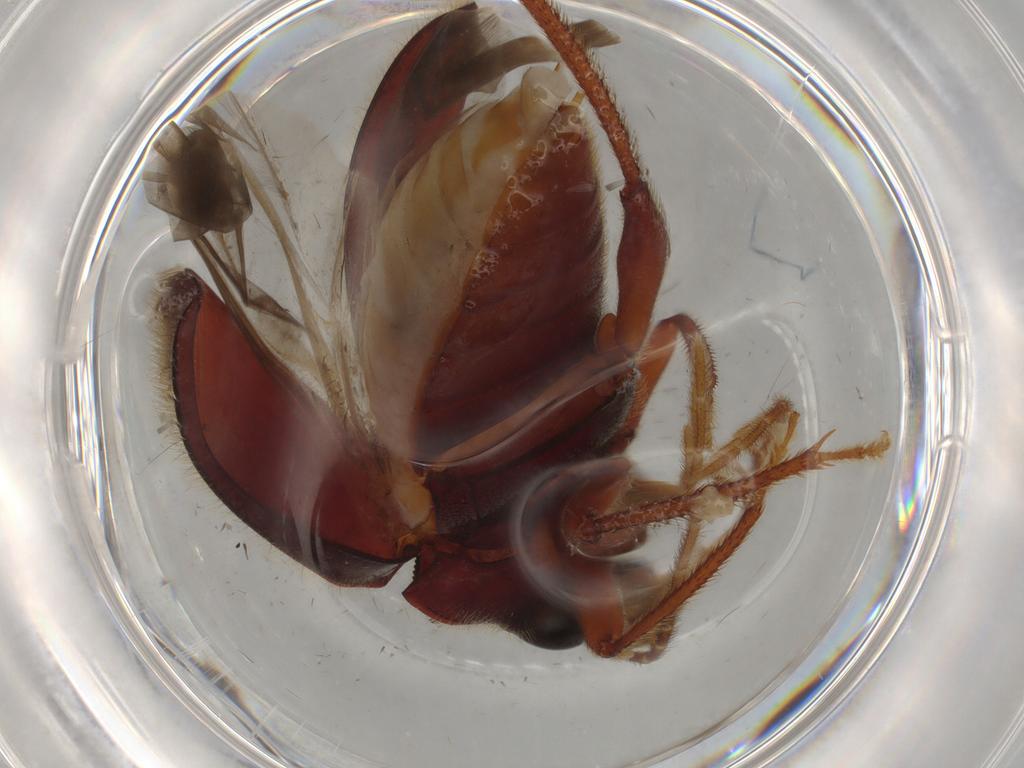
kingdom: Animalia
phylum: Arthropoda
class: Insecta
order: Coleoptera
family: Ptilodactylidae
